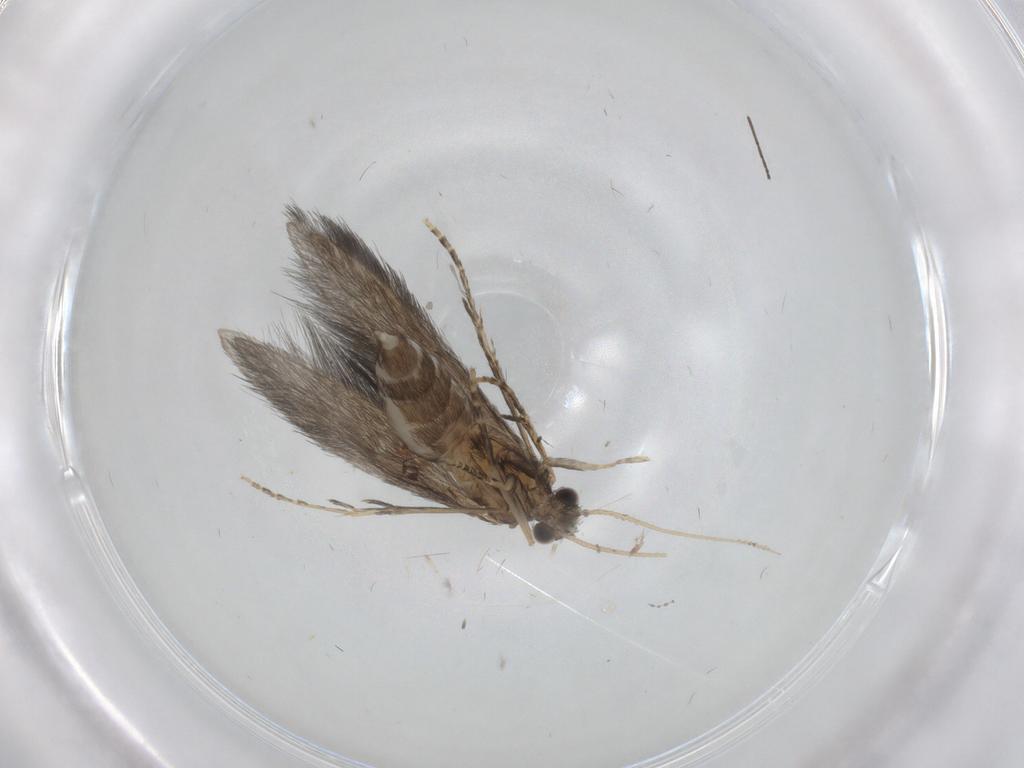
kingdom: Animalia
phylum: Arthropoda
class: Insecta
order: Trichoptera
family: Hydroptilidae
